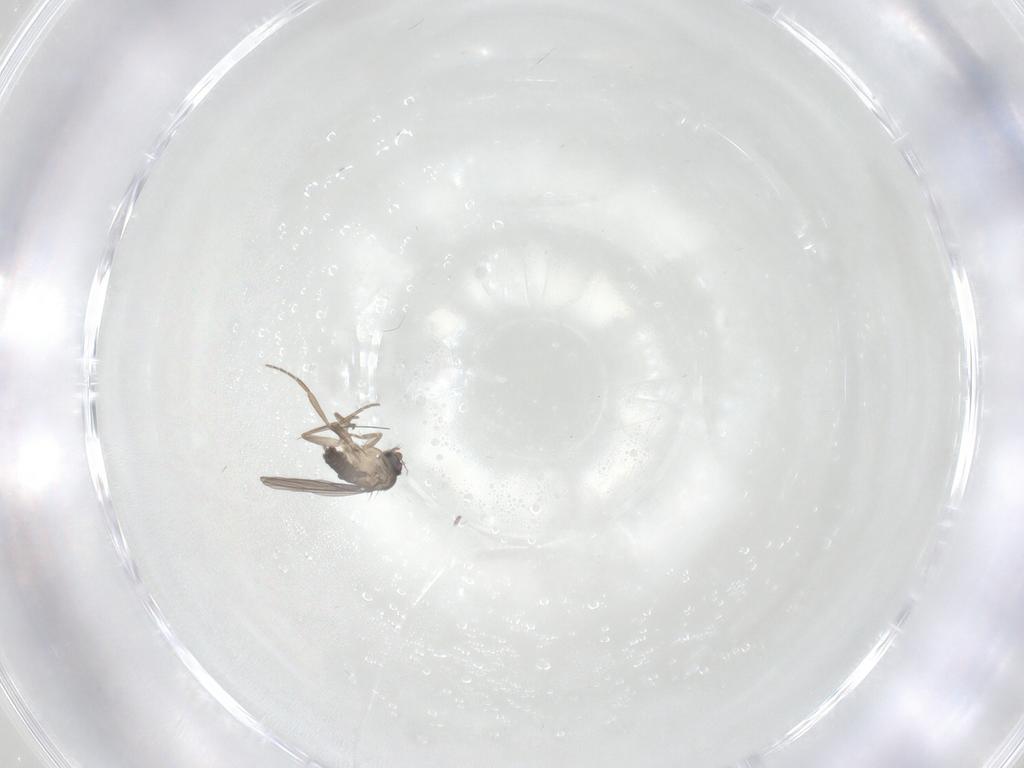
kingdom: Animalia
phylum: Arthropoda
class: Insecta
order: Diptera
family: Phoridae
